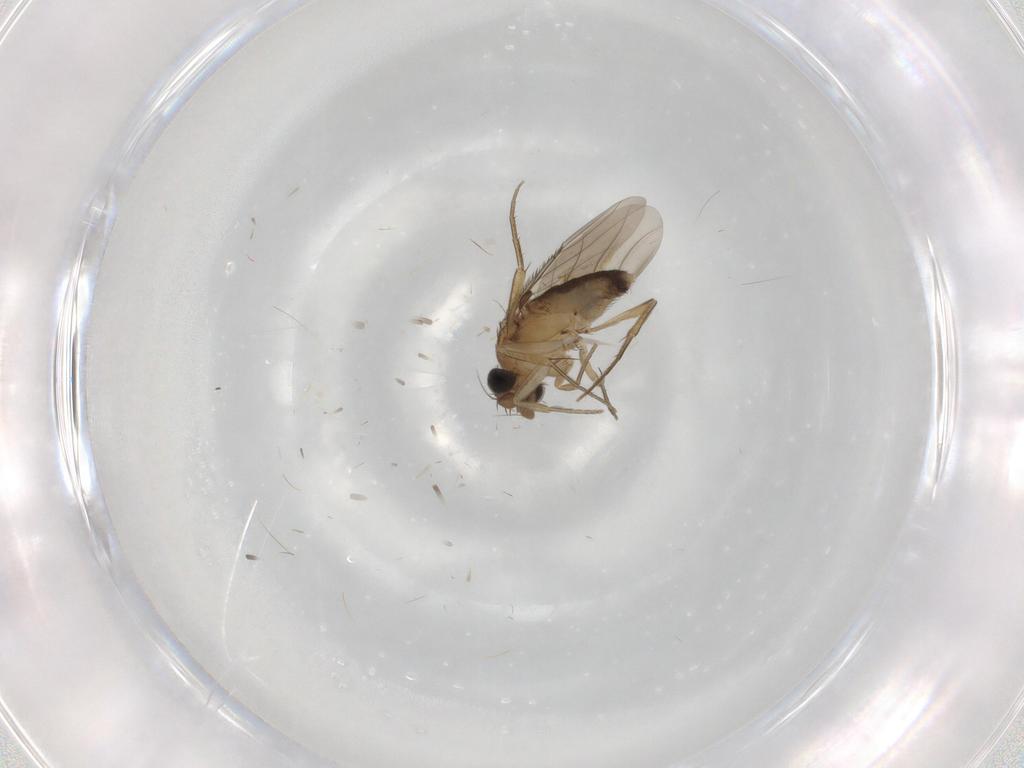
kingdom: Animalia
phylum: Arthropoda
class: Insecta
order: Diptera
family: Phoridae
